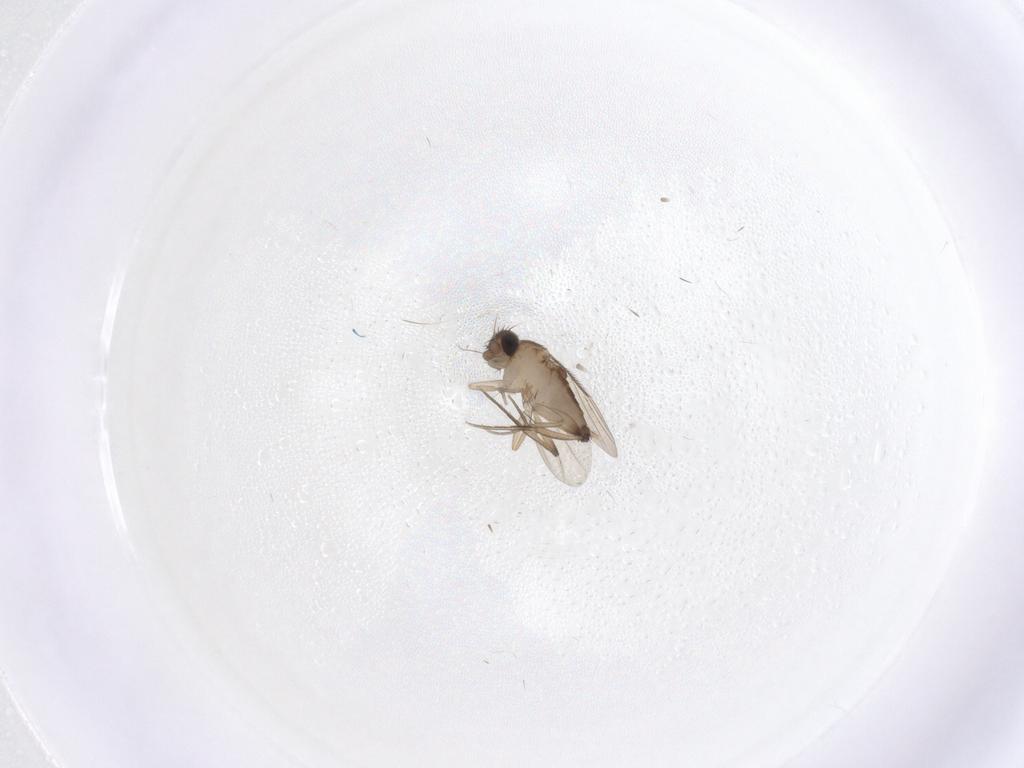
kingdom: Animalia
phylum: Arthropoda
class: Insecta
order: Diptera
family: Phoridae
